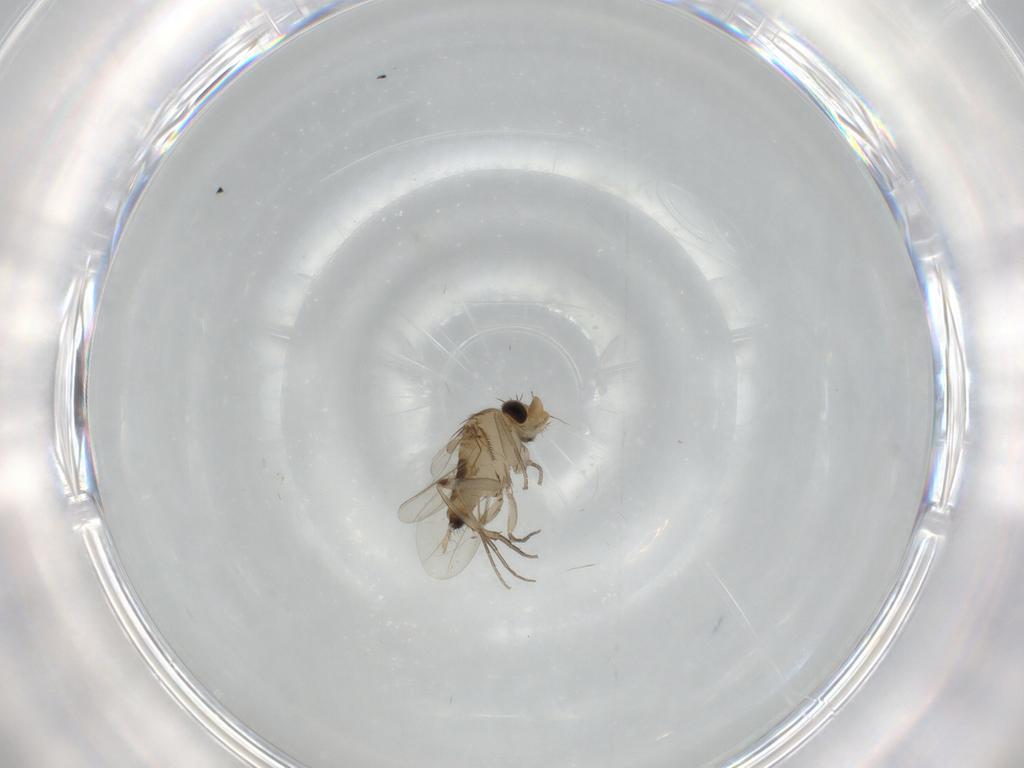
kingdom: Animalia
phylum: Arthropoda
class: Insecta
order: Diptera
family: Phoridae
